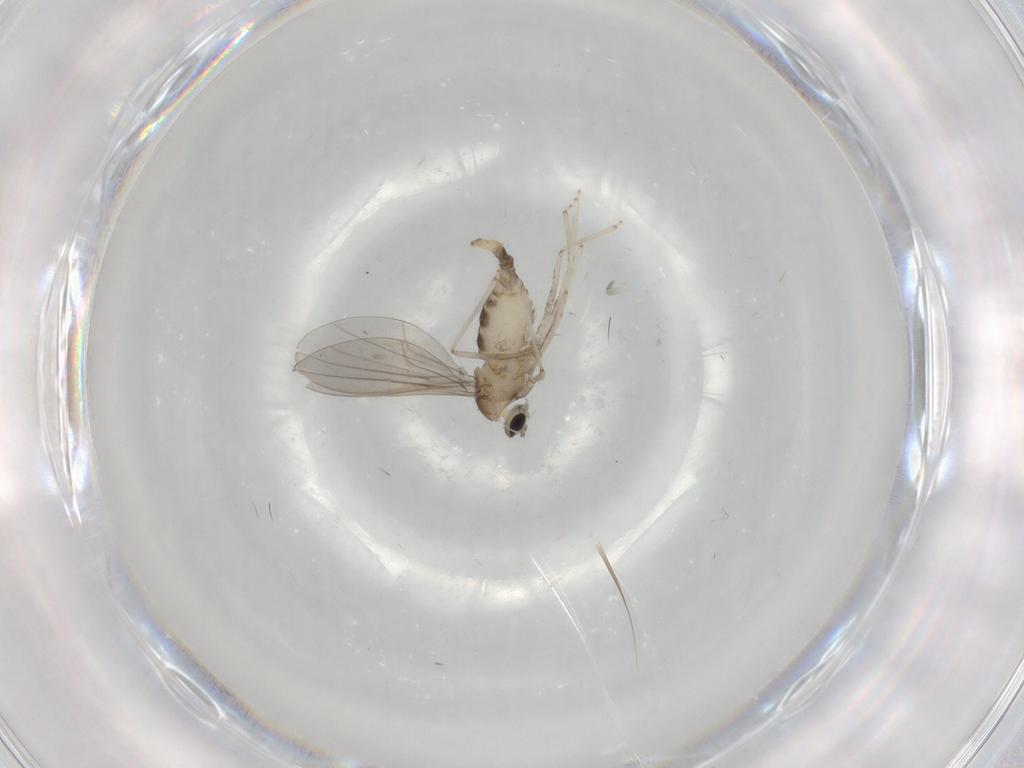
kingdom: Animalia
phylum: Arthropoda
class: Insecta
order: Diptera
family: Cecidomyiidae
